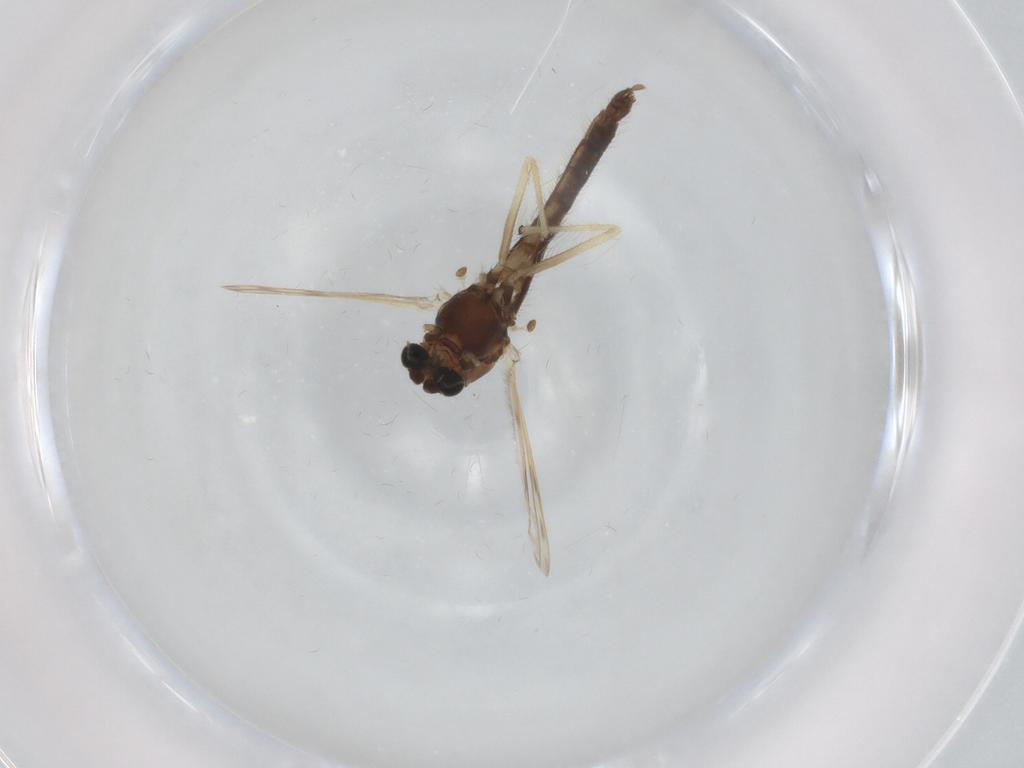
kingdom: Animalia
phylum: Arthropoda
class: Insecta
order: Diptera
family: Chironomidae
